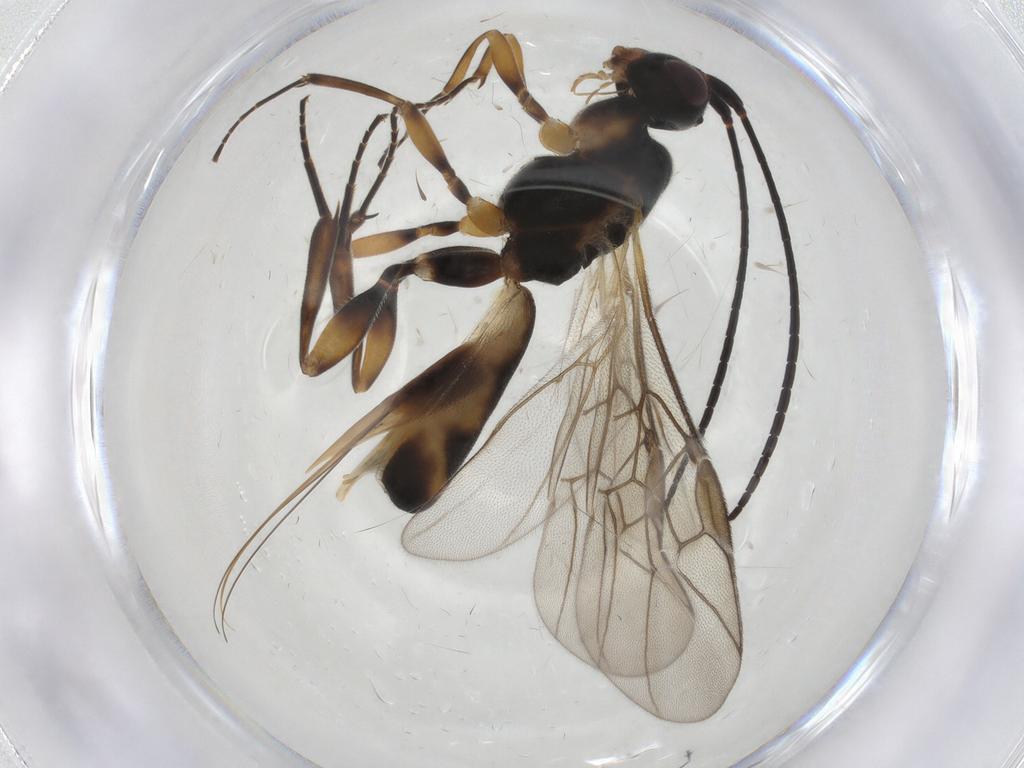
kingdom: Animalia
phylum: Arthropoda
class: Insecta
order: Hymenoptera
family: Braconidae
